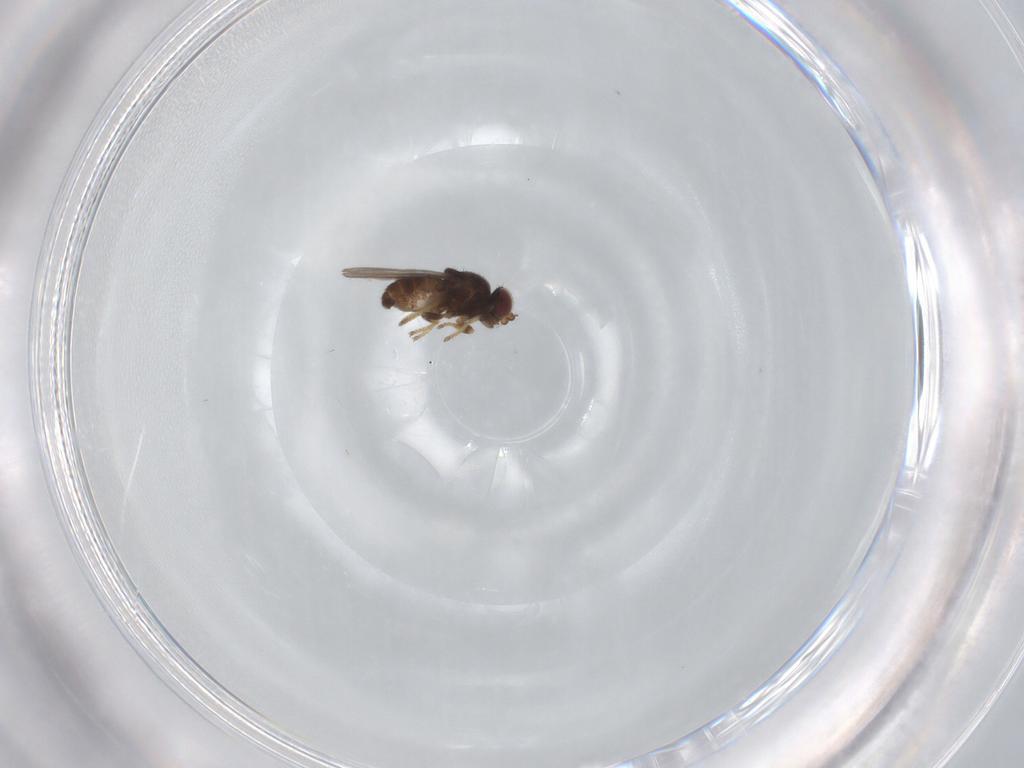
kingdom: Animalia
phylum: Arthropoda
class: Insecta
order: Diptera
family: Chloropidae
